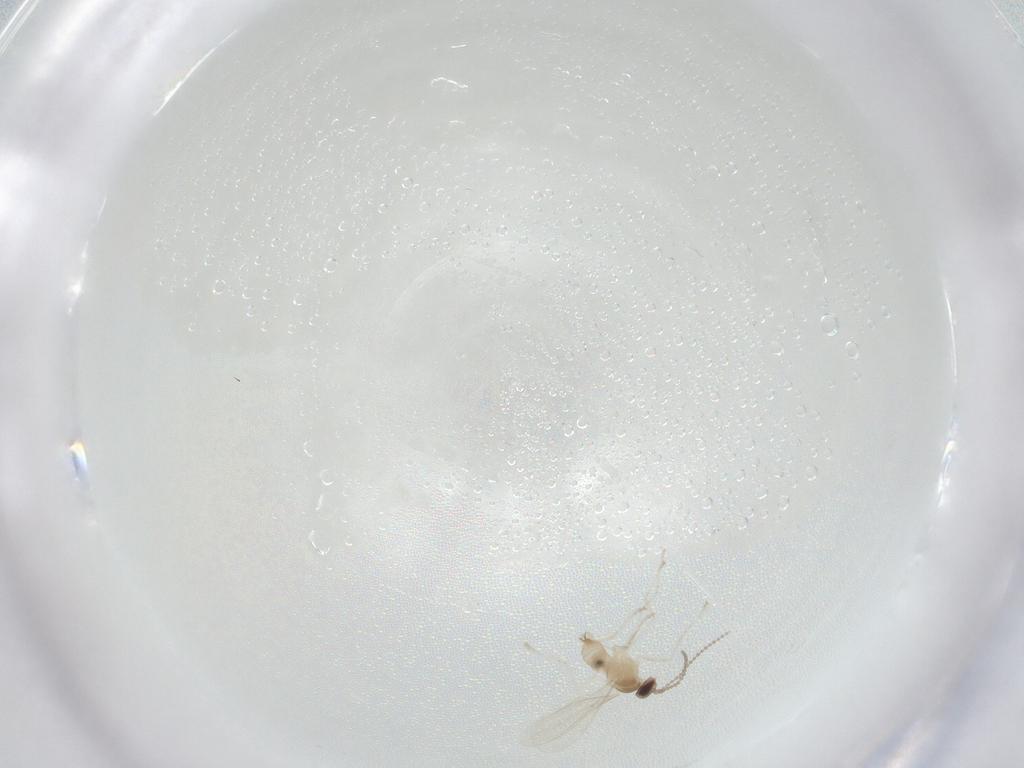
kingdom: Animalia
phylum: Arthropoda
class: Insecta
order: Diptera
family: Cecidomyiidae
